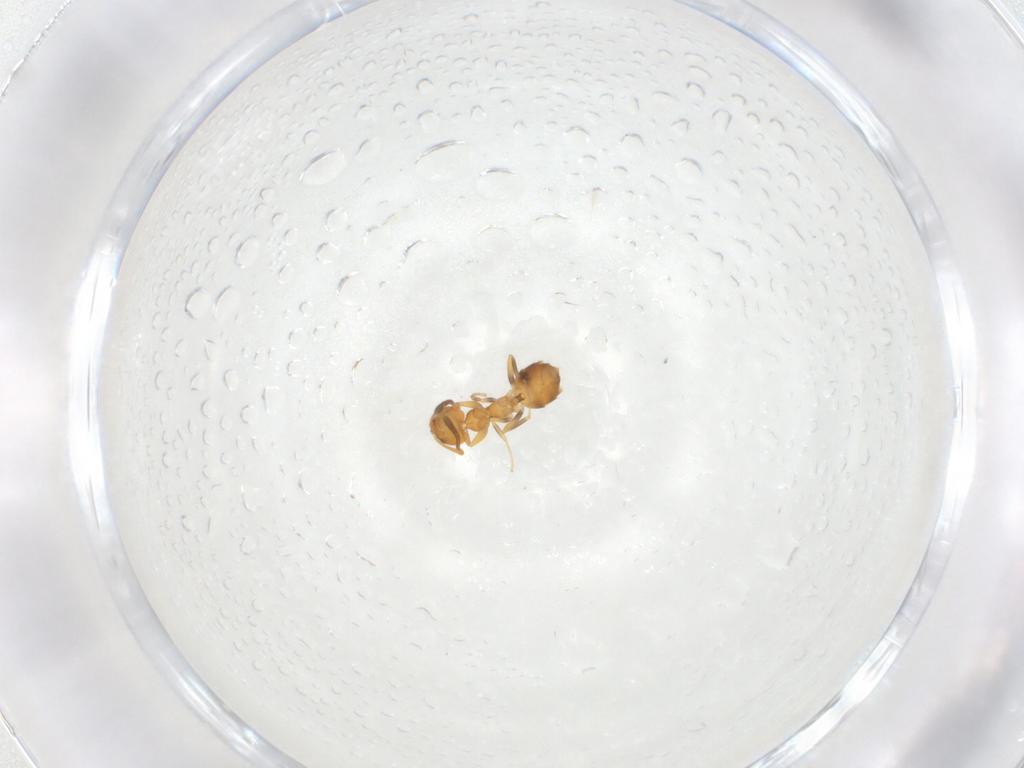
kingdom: Animalia
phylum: Arthropoda
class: Insecta
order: Hymenoptera
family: Formicidae
